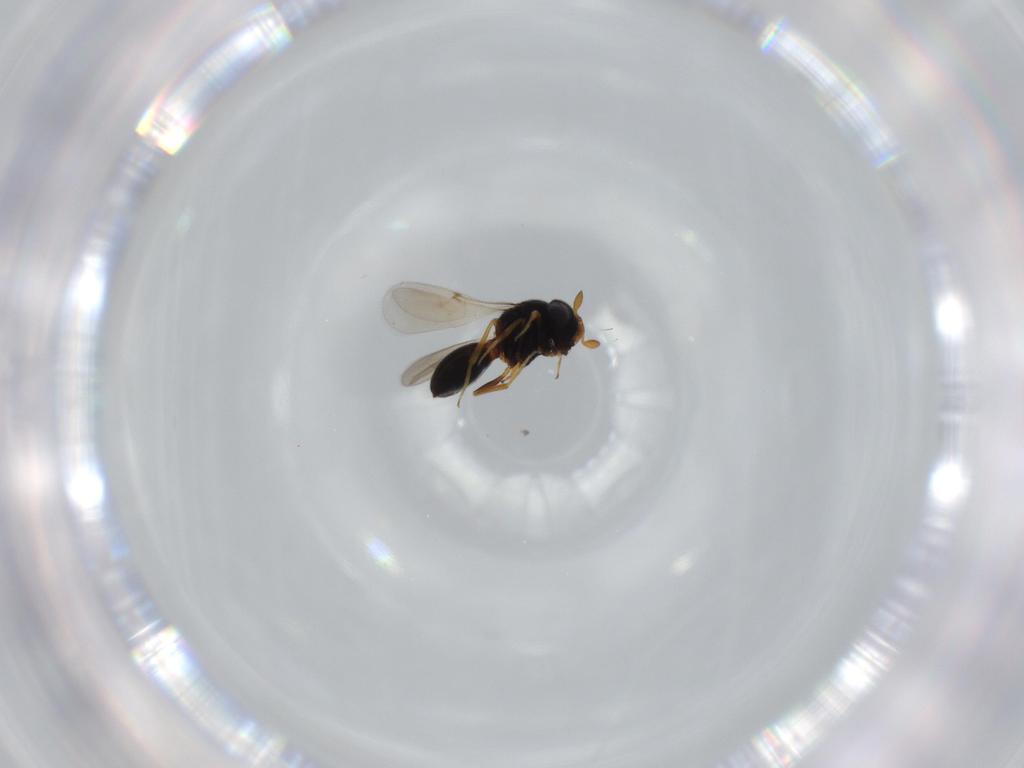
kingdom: Animalia
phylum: Arthropoda
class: Insecta
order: Hymenoptera
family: Scelionidae
